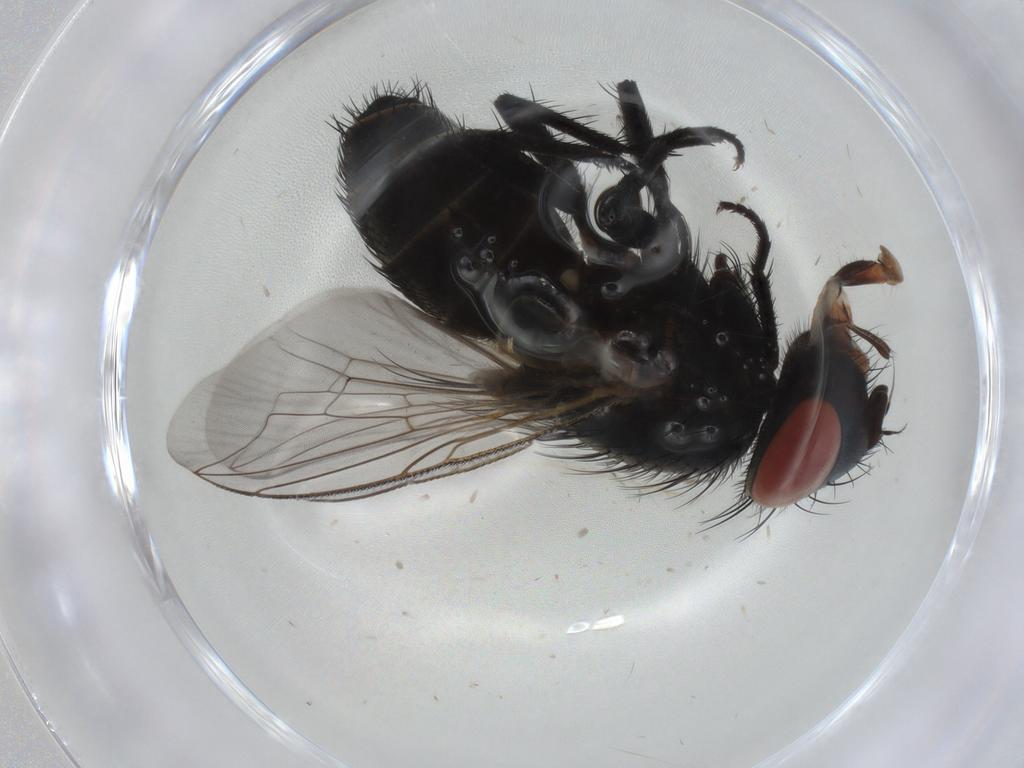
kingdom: Animalia
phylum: Arthropoda
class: Insecta
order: Diptera
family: Sarcophagidae
